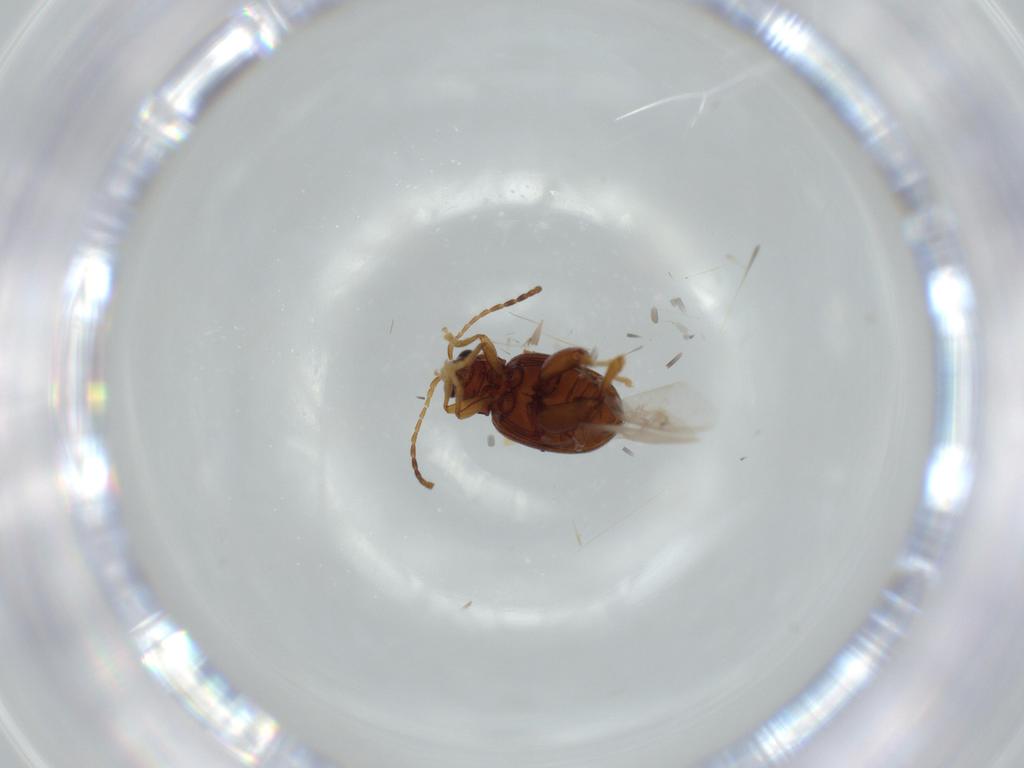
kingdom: Animalia
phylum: Arthropoda
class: Insecta
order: Coleoptera
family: Chrysomelidae
